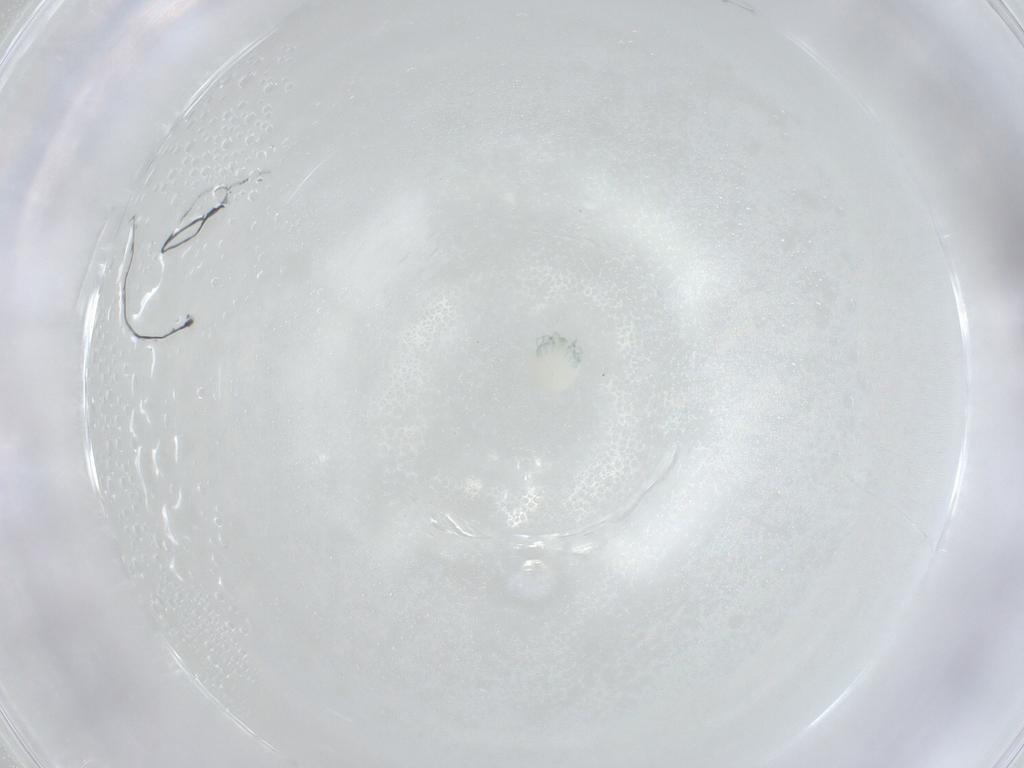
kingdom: Animalia
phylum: Arthropoda
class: Arachnida
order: Trombidiformes
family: Arrenuridae
